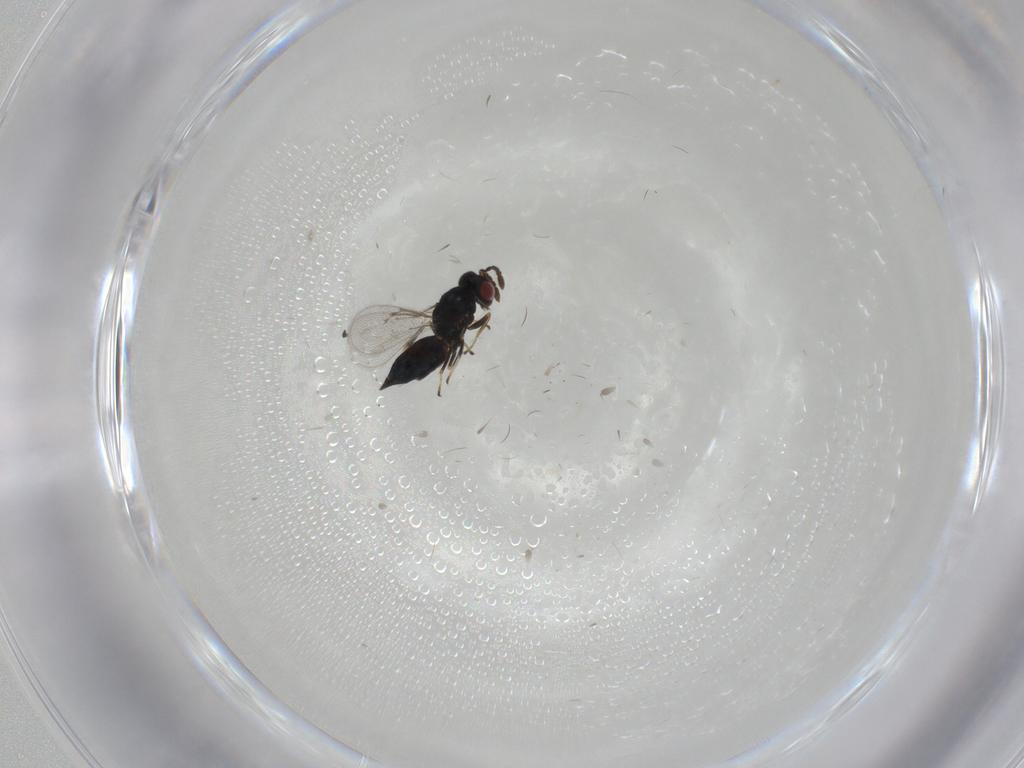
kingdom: Animalia
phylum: Arthropoda
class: Insecta
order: Hymenoptera
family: Eulophidae
